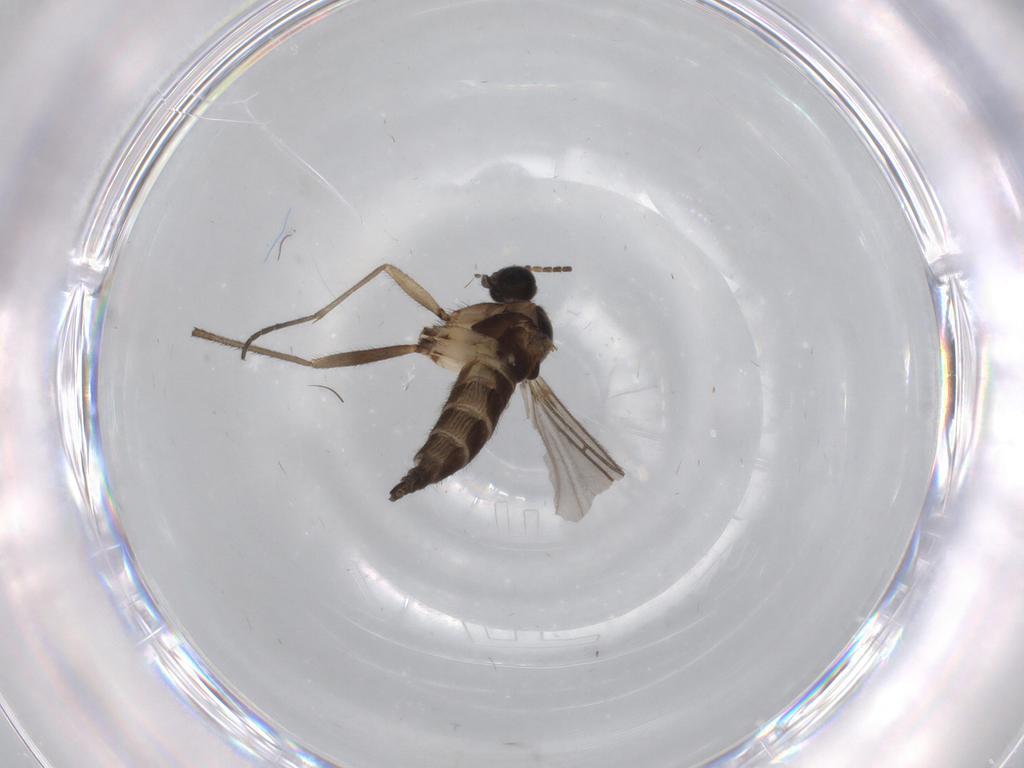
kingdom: Animalia
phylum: Arthropoda
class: Insecta
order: Diptera
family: Sciaridae
